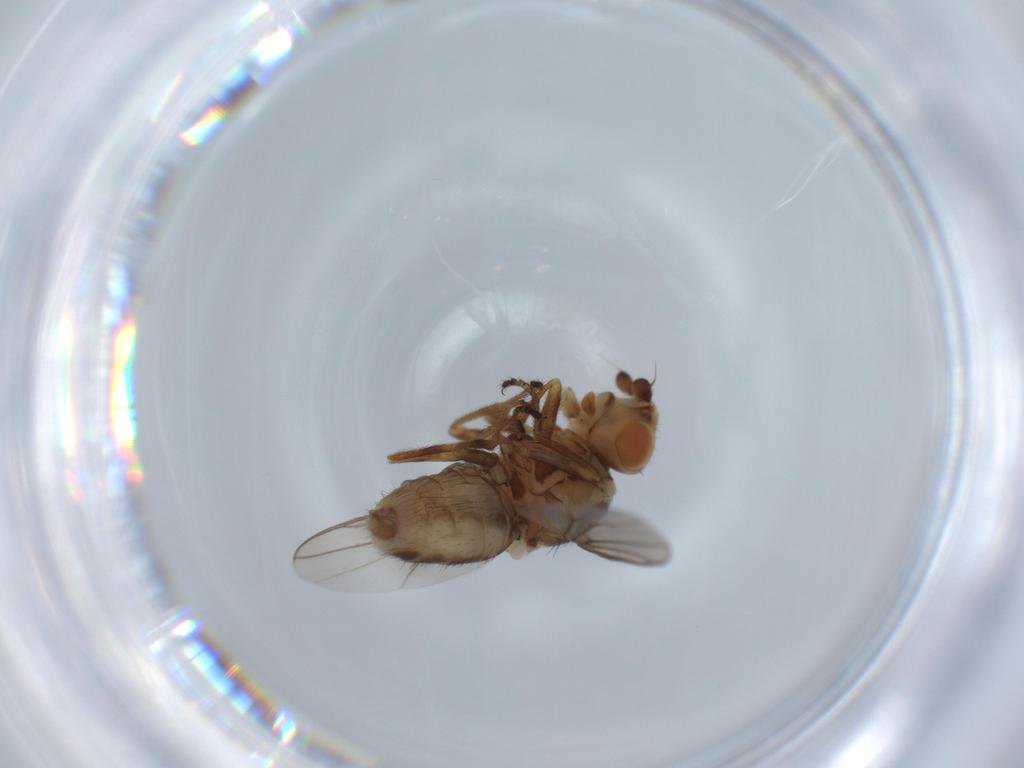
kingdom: Animalia
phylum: Arthropoda
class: Insecta
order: Diptera
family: Chloropidae
